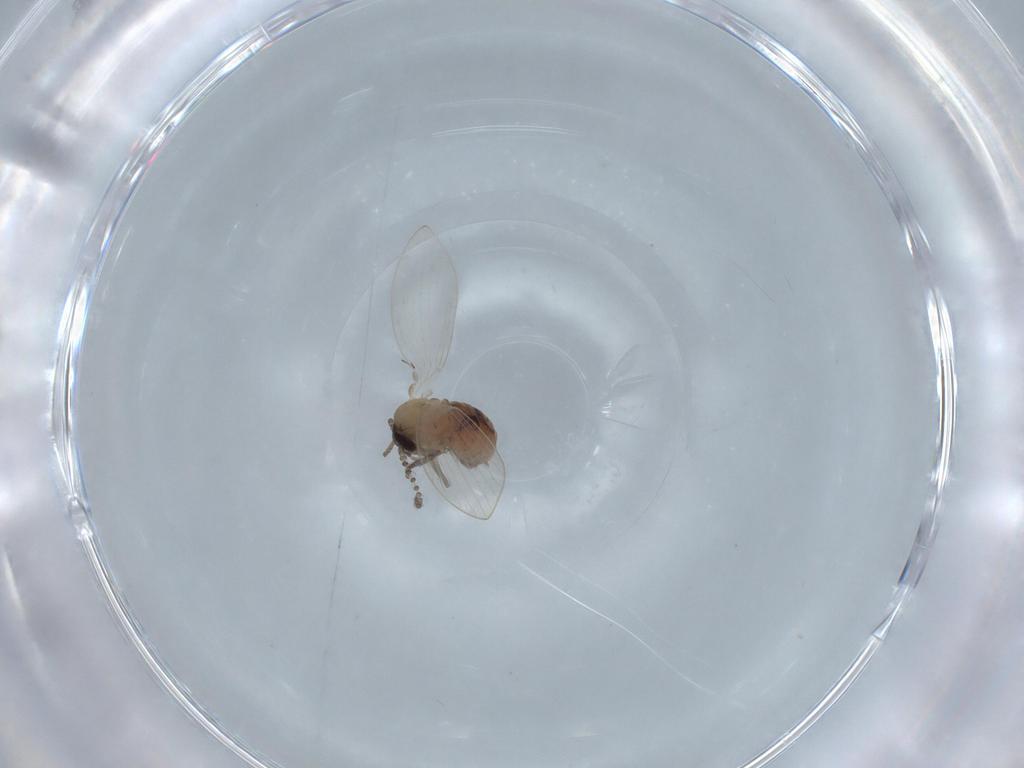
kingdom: Animalia
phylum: Arthropoda
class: Insecta
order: Diptera
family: Psychodidae
